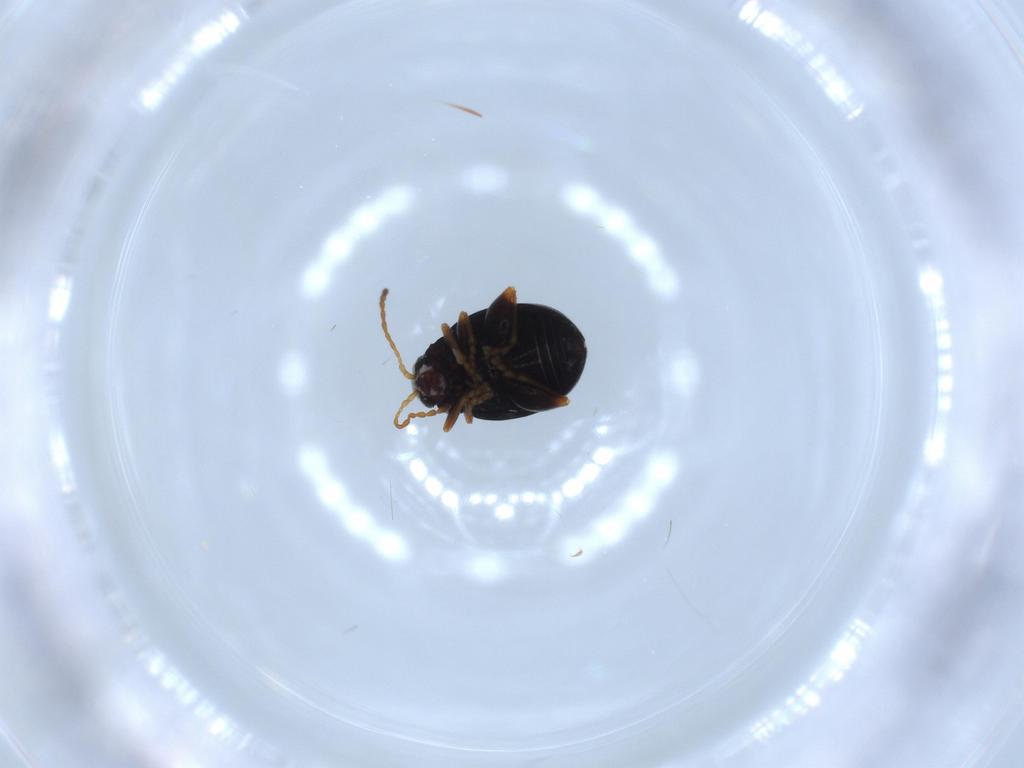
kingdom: Animalia
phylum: Arthropoda
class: Insecta
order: Coleoptera
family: Chrysomelidae
